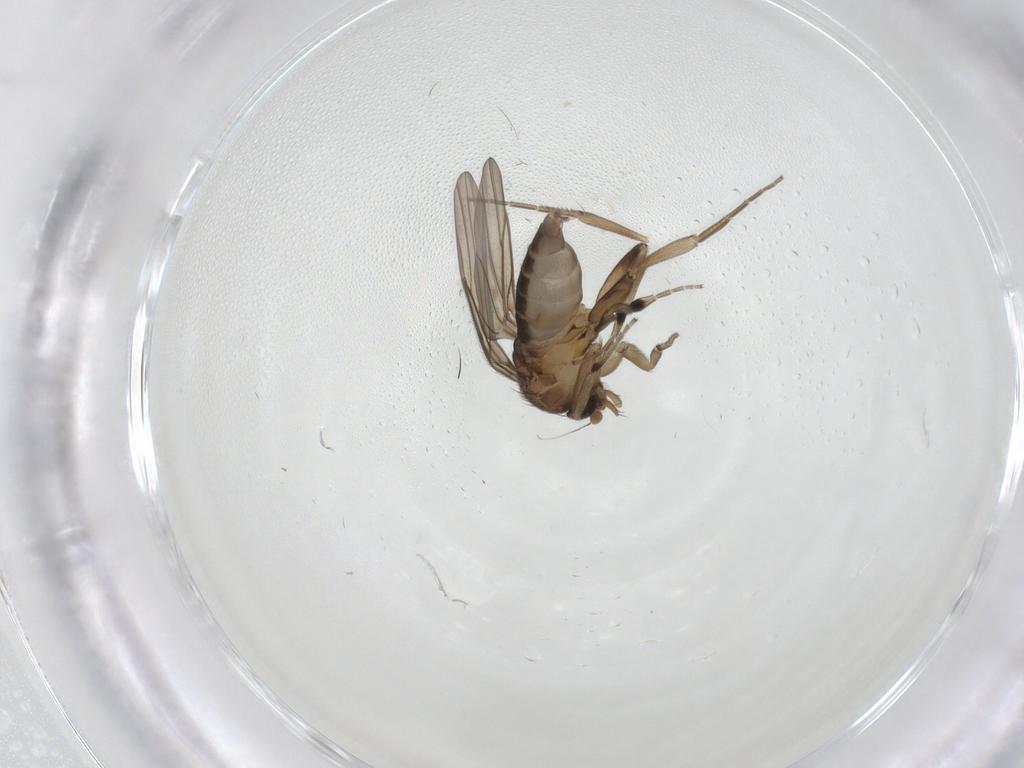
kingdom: Animalia
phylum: Arthropoda
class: Insecta
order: Diptera
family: Phoridae
